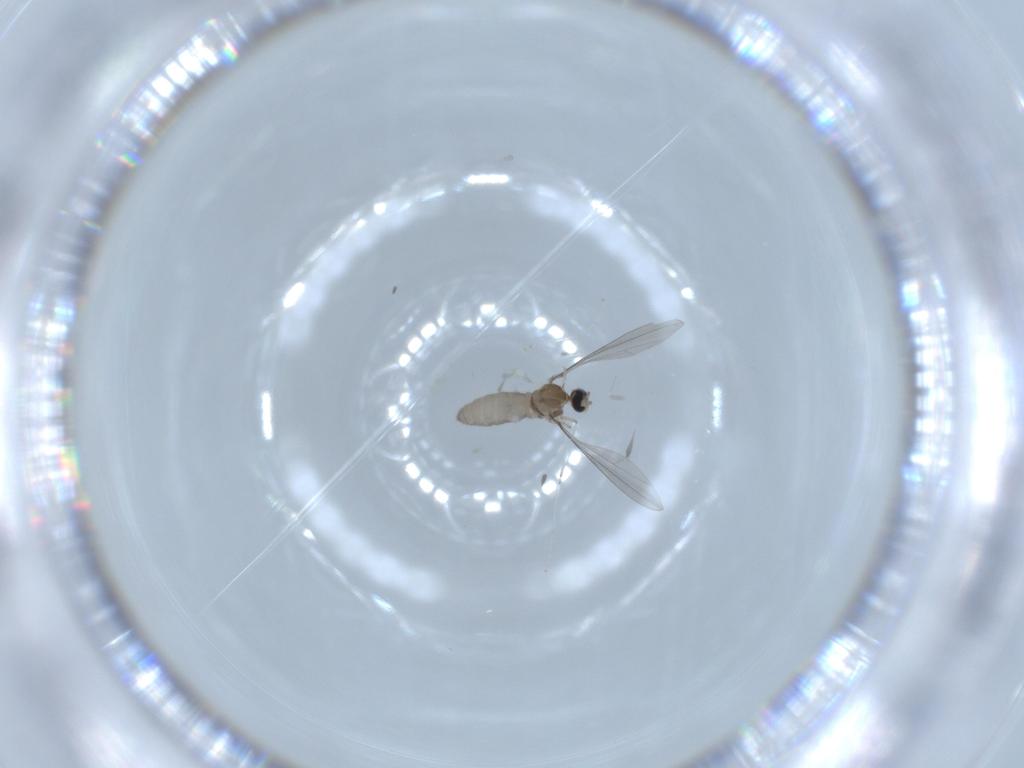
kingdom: Animalia
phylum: Arthropoda
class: Insecta
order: Diptera
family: Cecidomyiidae
